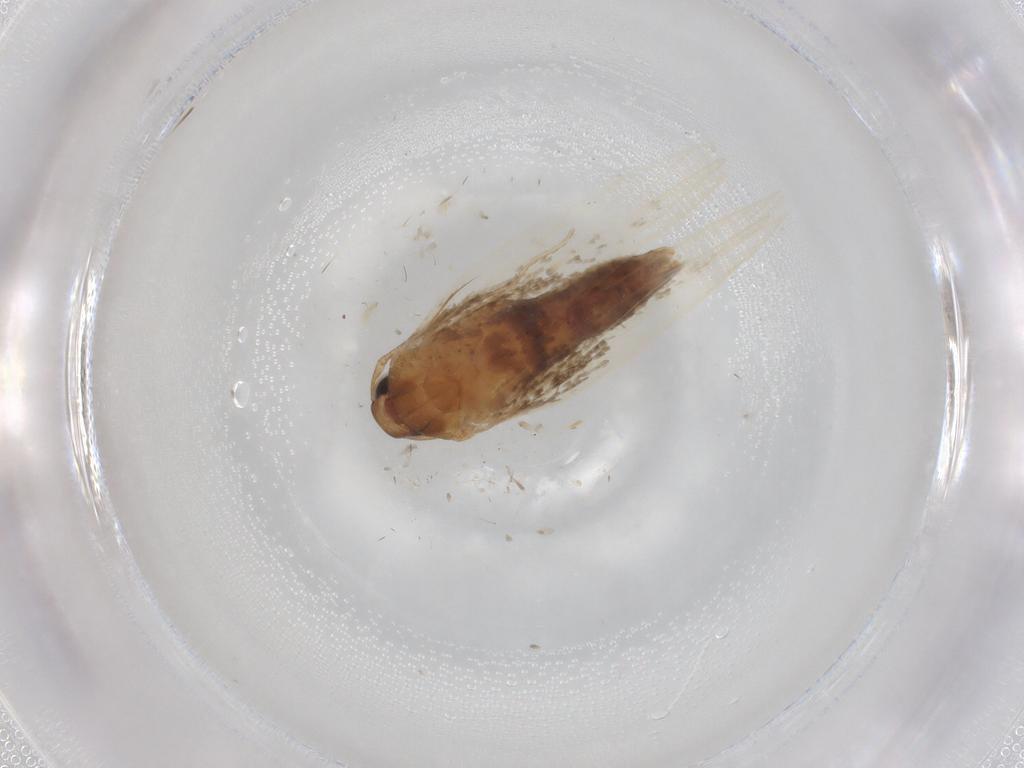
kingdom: Animalia
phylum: Arthropoda
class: Insecta
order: Lepidoptera
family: Cosmopterigidae
